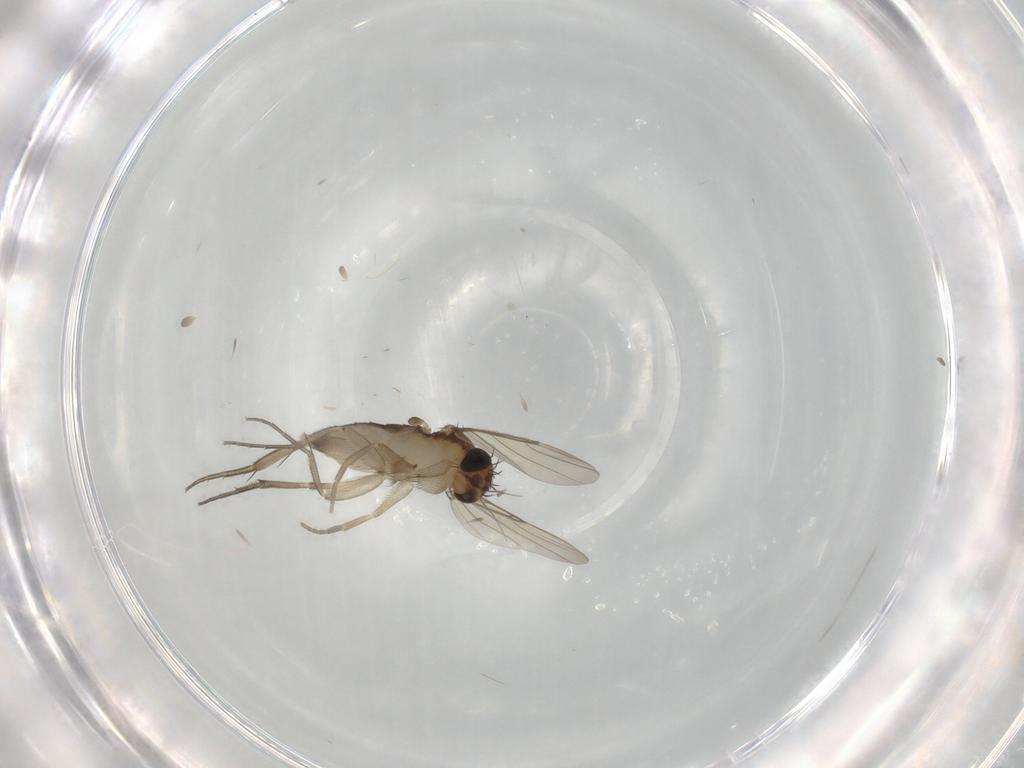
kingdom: Animalia
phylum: Arthropoda
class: Insecta
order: Diptera
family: Phoridae
